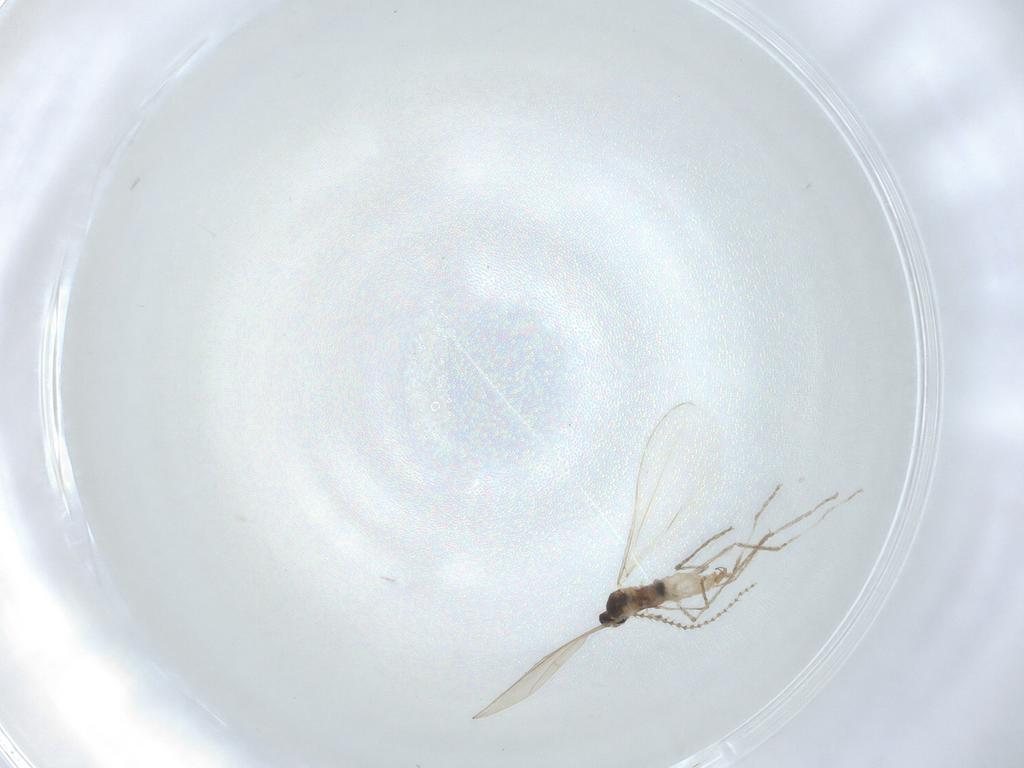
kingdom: Animalia
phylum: Arthropoda
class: Insecta
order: Diptera
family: Cecidomyiidae
